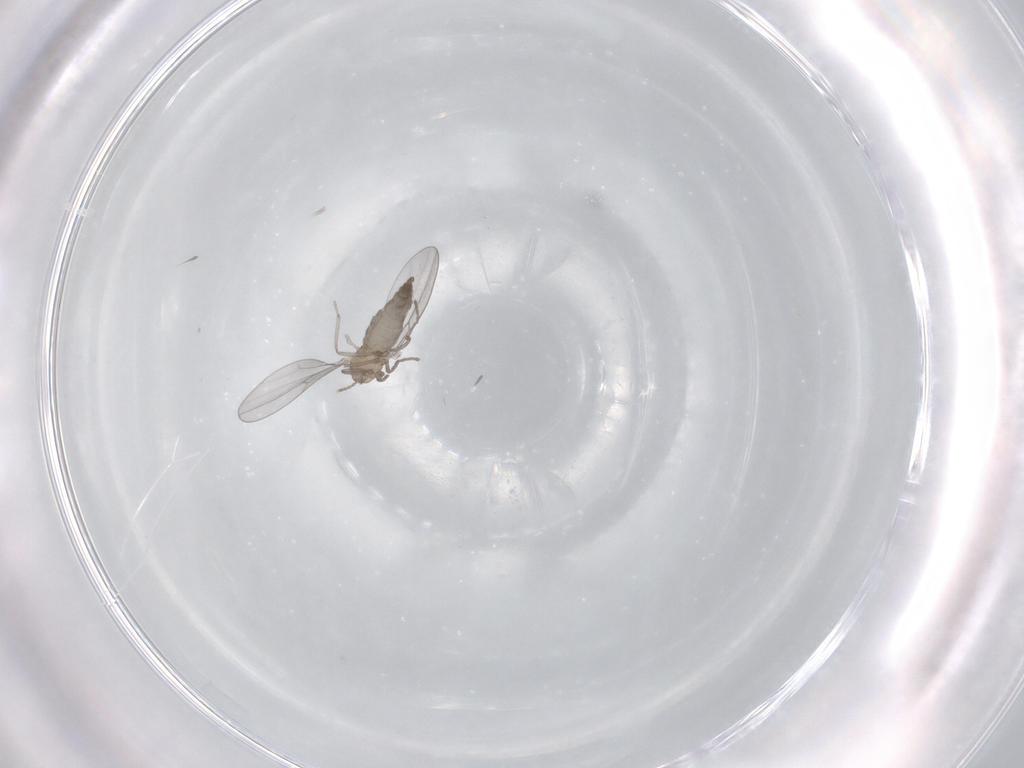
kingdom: Animalia
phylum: Arthropoda
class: Insecta
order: Diptera
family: Cecidomyiidae
